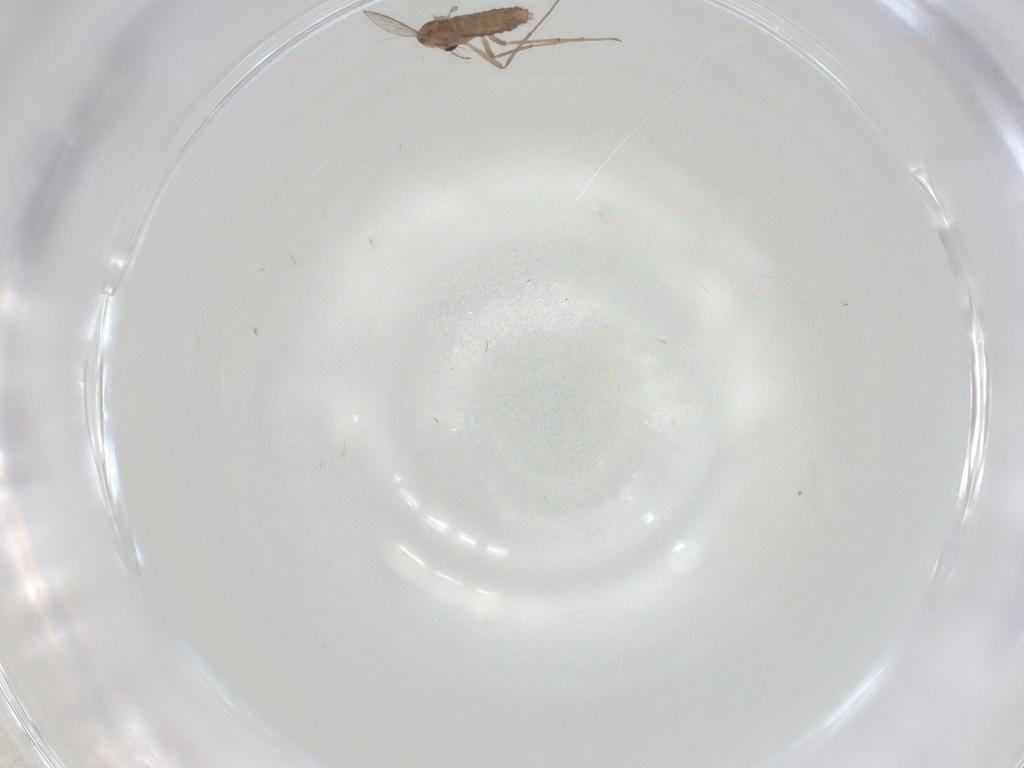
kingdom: Animalia
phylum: Arthropoda
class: Insecta
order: Diptera
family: Chironomidae
